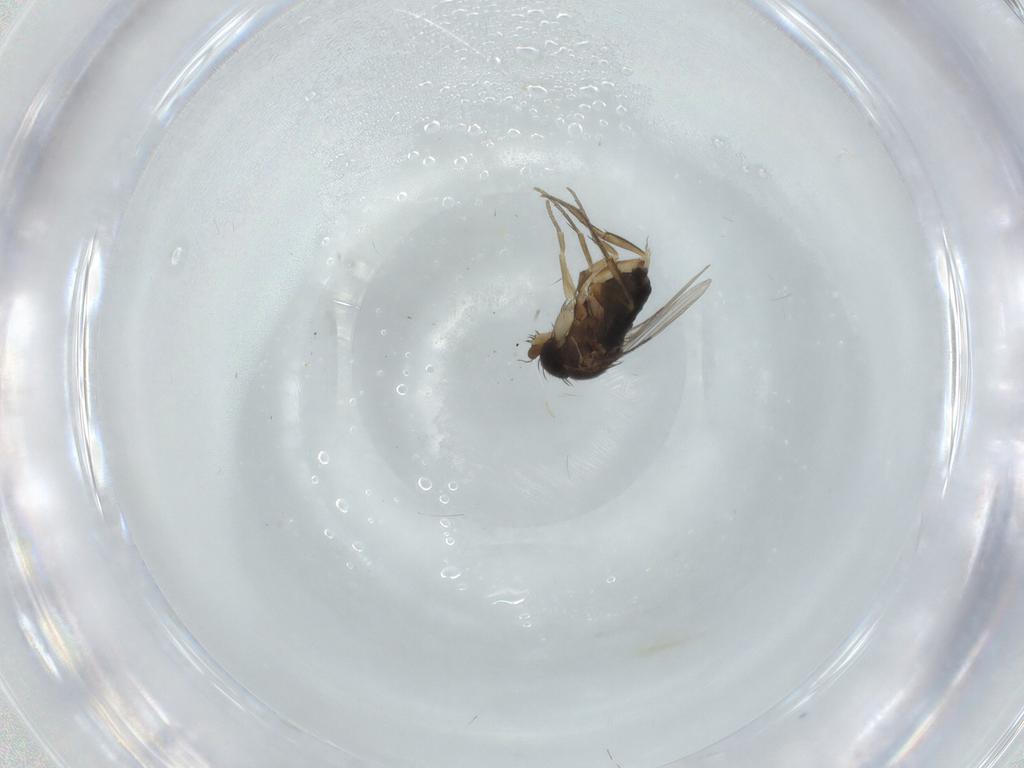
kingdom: Animalia
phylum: Arthropoda
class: Insecta
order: Diptera
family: Phoridae
